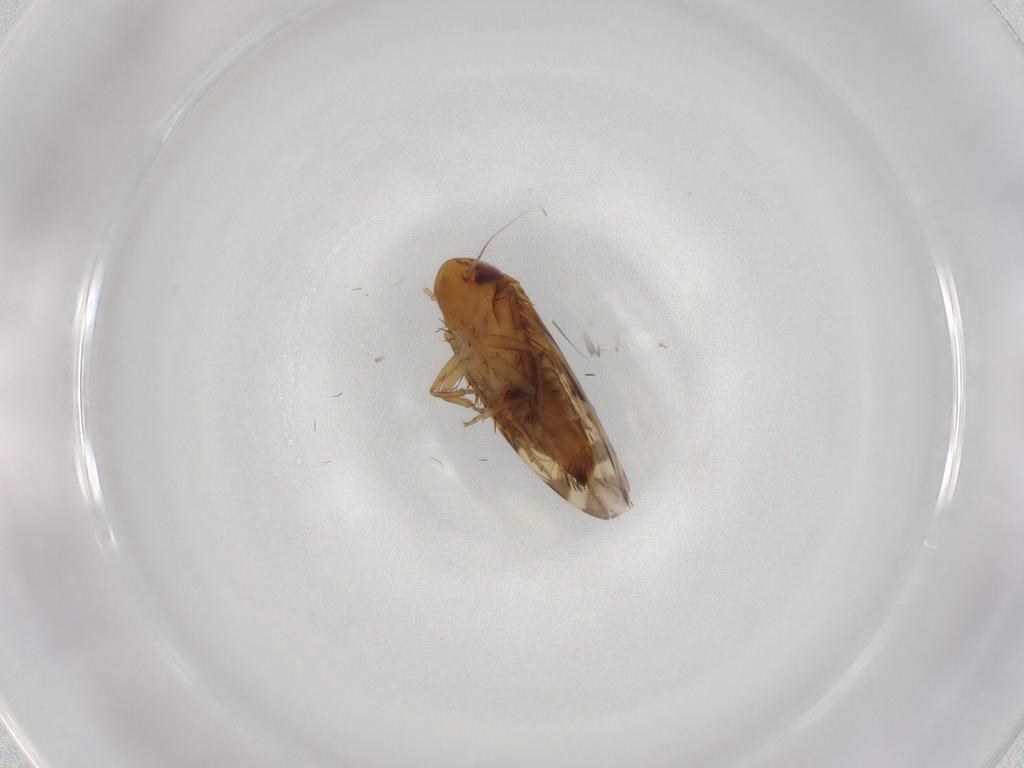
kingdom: Animalia
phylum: Arthropoda
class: Insecta
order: Hemiptera
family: Cicadellidae
